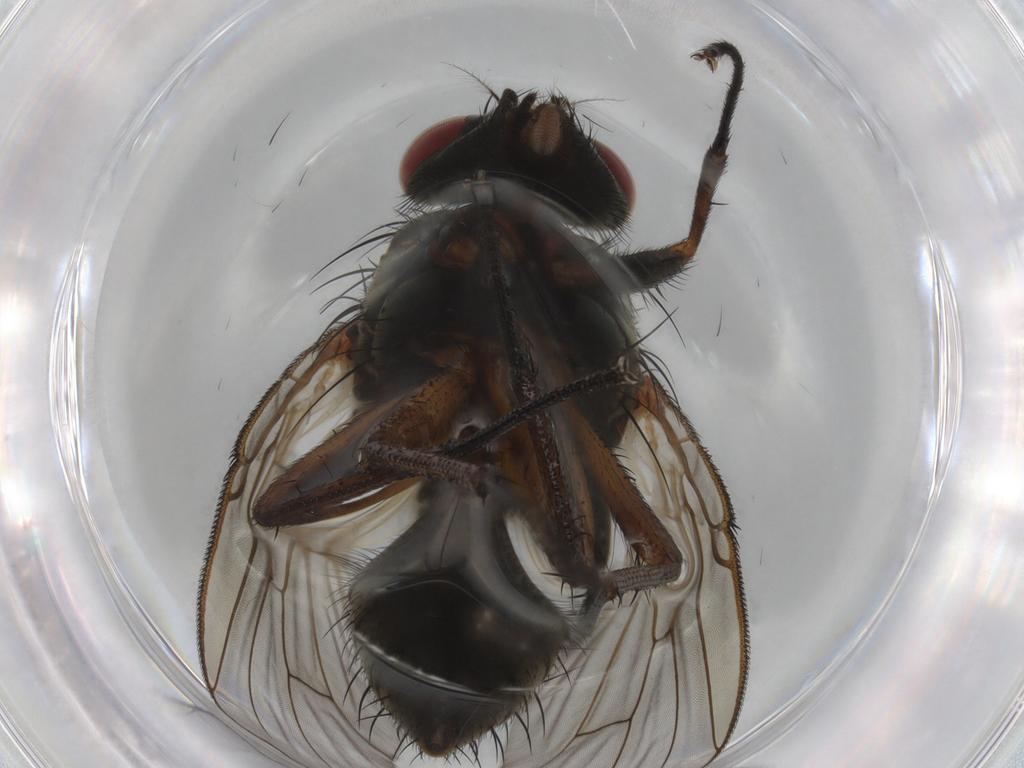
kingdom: Animalia
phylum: Arthropoda
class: Insecta
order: Diptera
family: Muscidae
